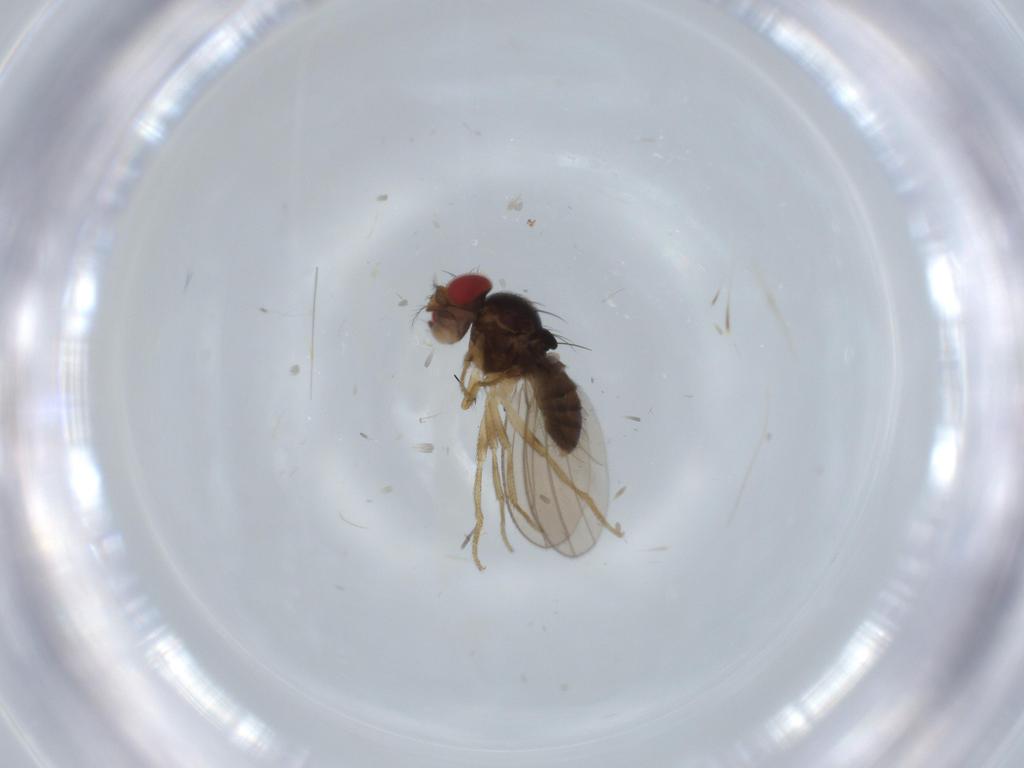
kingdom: Animalia
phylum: Arthropoda
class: Insecta
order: Diptera
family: Drosophilidae
